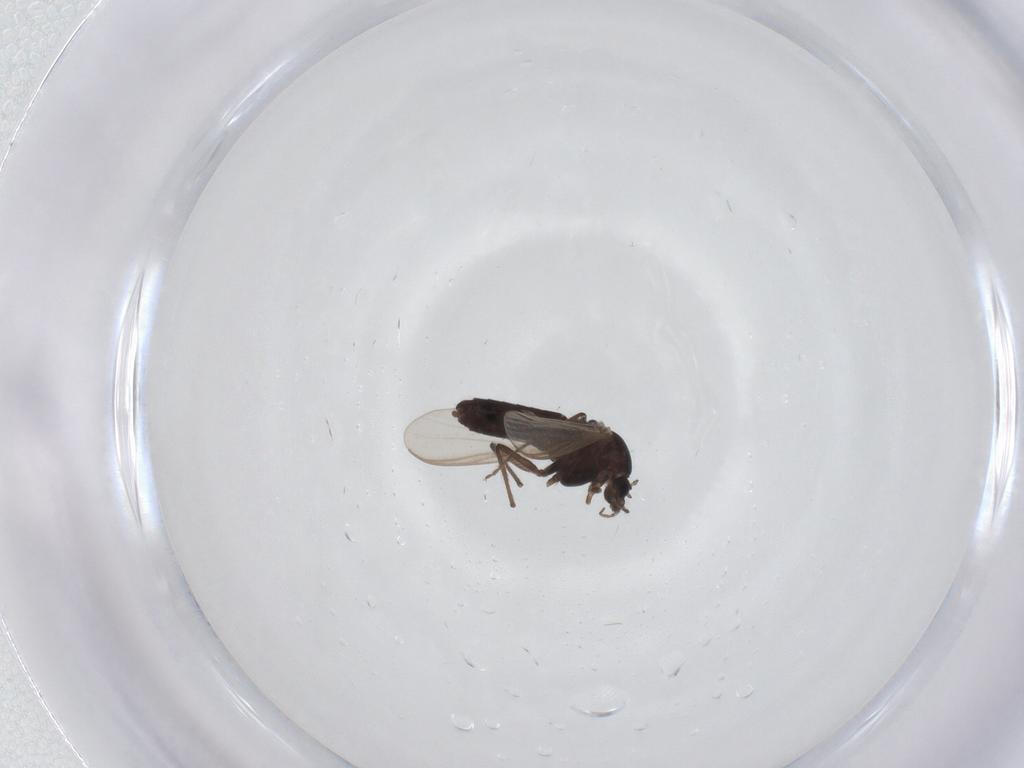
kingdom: Animalia
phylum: Arthropoda
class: Insecta
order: Diptera
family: Chironomidae
